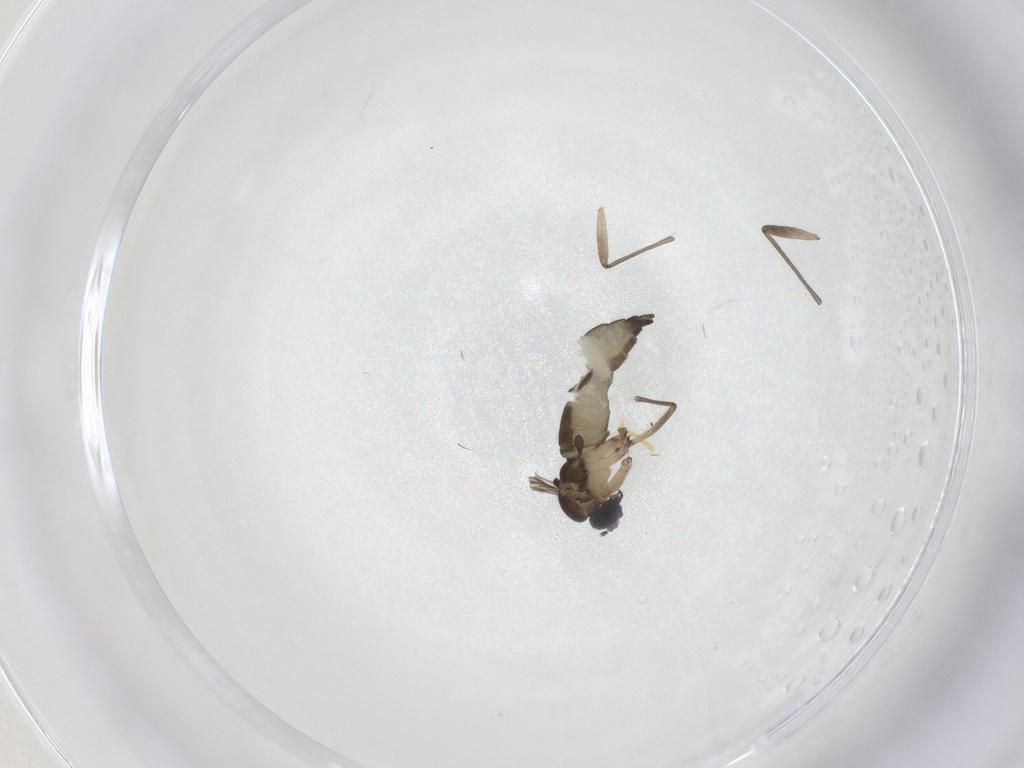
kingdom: Animalia
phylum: Arthropoda
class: Insecta
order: Diptera
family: Sciaridae
